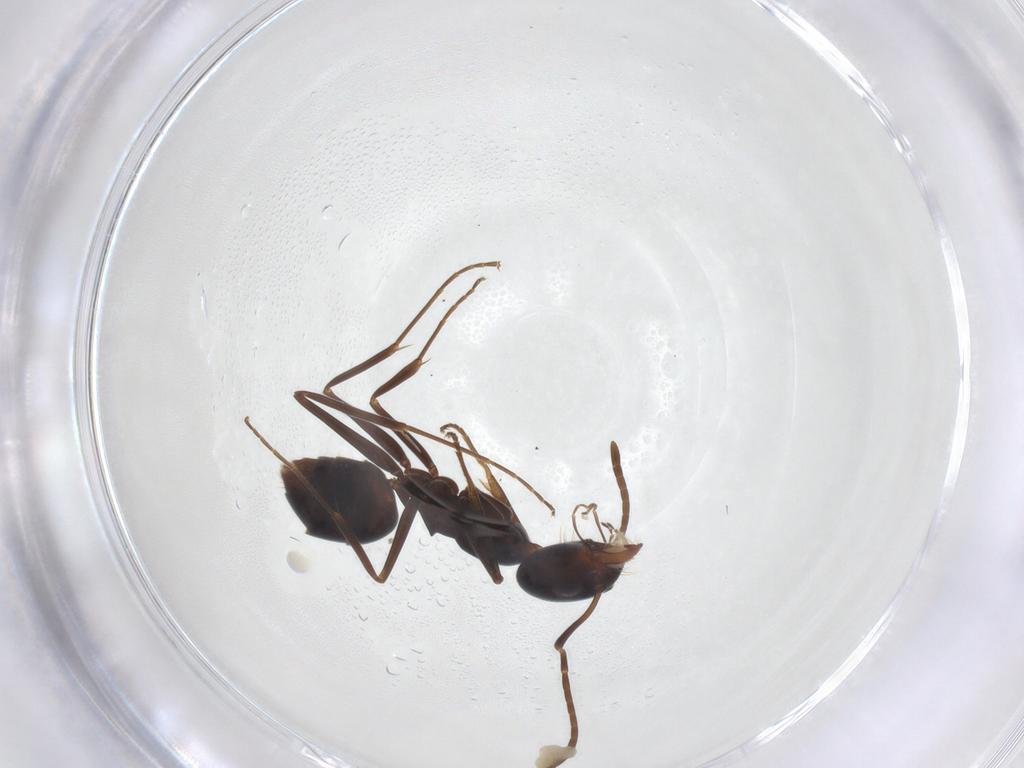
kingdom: Animalia
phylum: Arthropoda
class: Insecta
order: Hymenoptera
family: Formicidae
